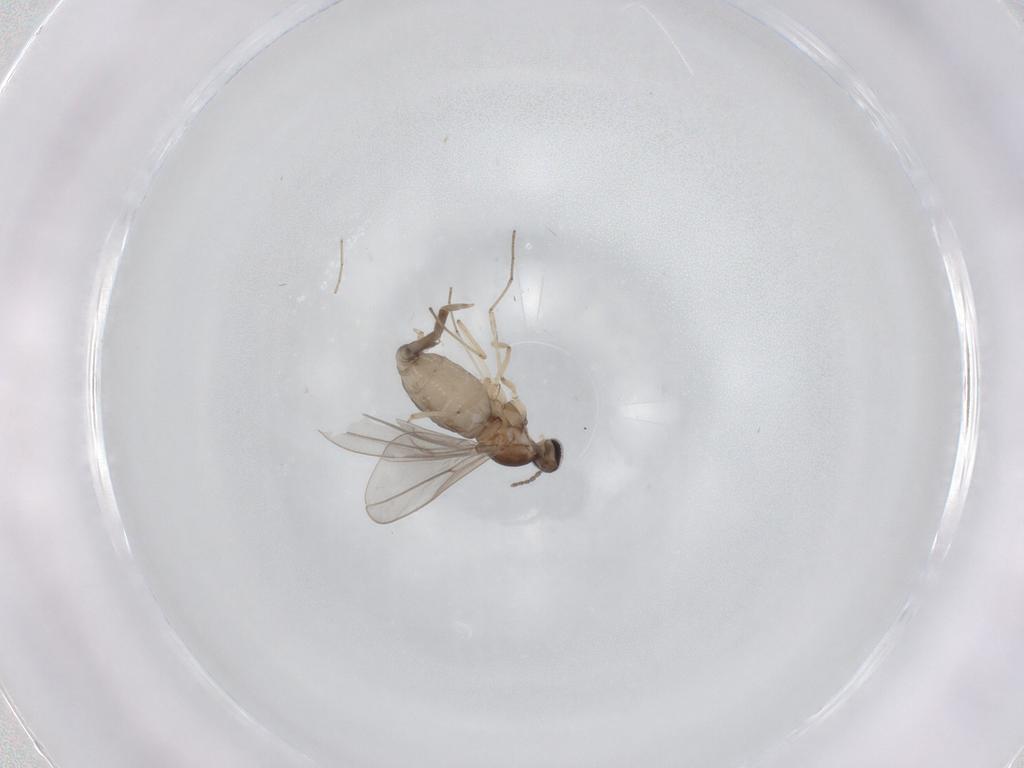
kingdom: Animalia
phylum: Arthropoda
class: Insecta
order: Diptera
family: Cecidomyiidae
